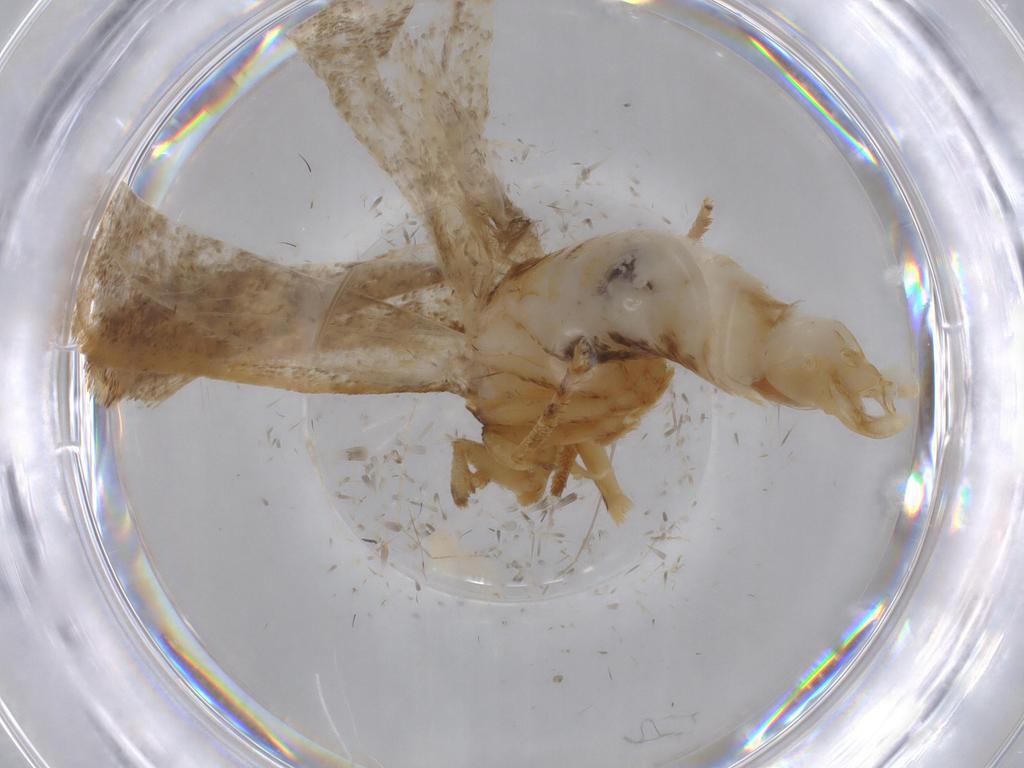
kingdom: Animalia
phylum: Arthropoda
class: Insecta
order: Lepidoptera
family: Lecithoceridae
